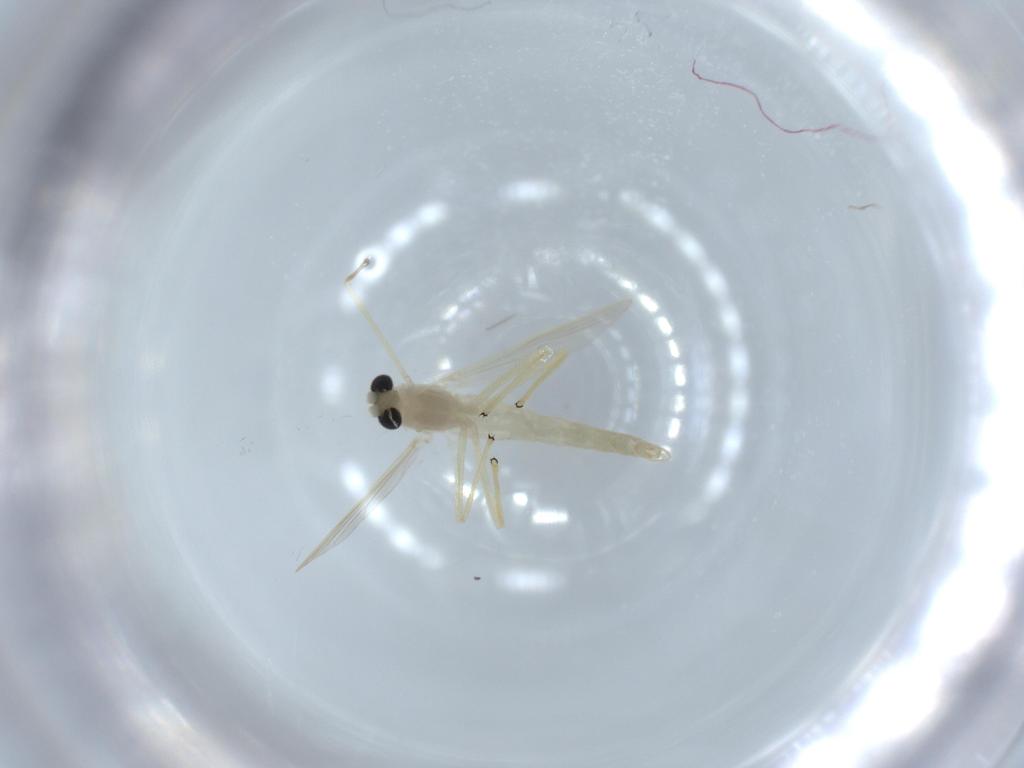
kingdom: Animalia
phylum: Arthropoda
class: Insecta
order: Diptera
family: Chironomidae
